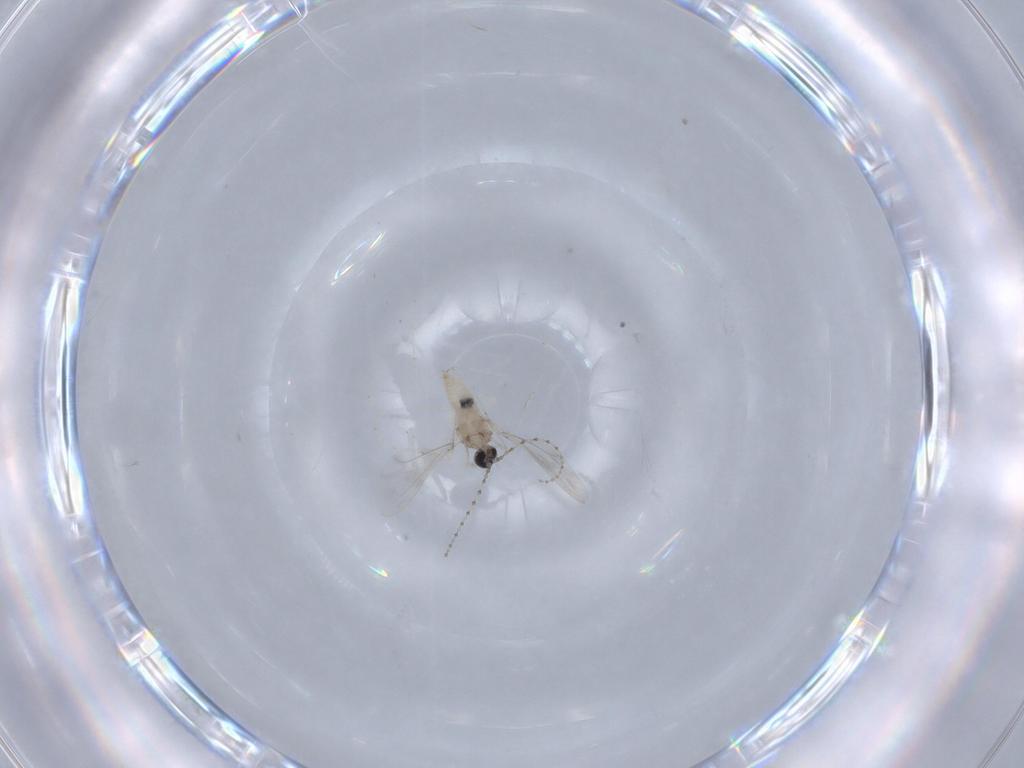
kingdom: Animalia
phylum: Arthropoda
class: Insecta
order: Diptera
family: Cecidomyiidae
